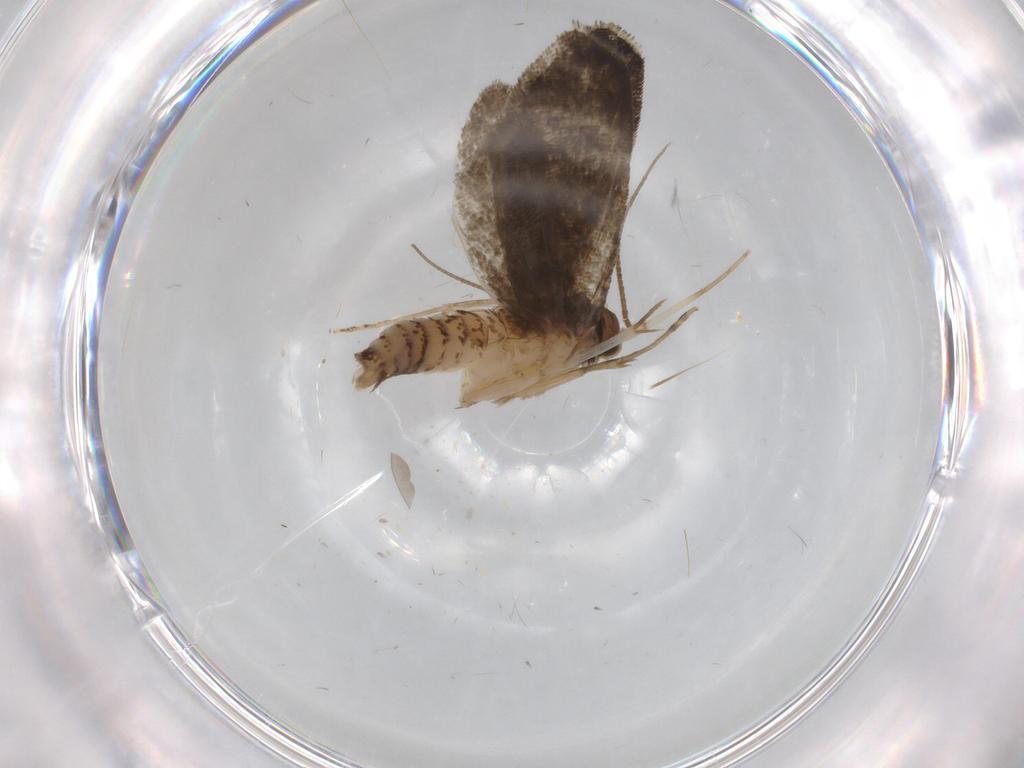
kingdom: Animalia
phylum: Arthropoda
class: Insecta
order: Lepidoptera
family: Tineidae
